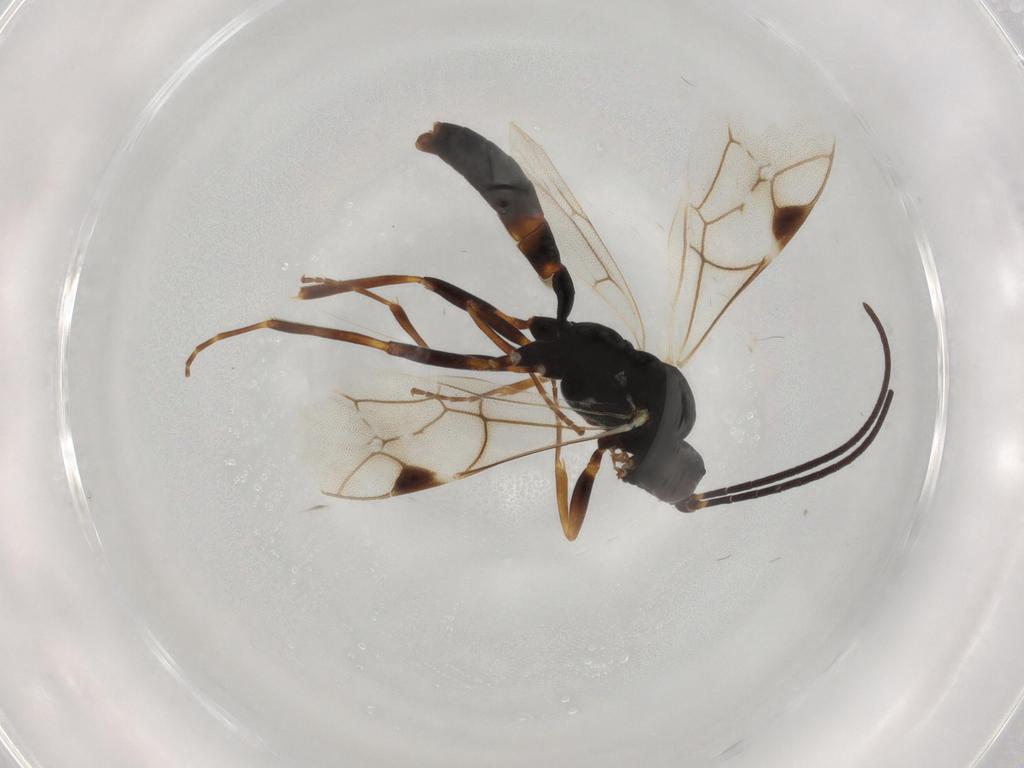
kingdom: Animalia
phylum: Arthropoda
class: Insecta
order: Hymenoptera
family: Ichneumonidae
